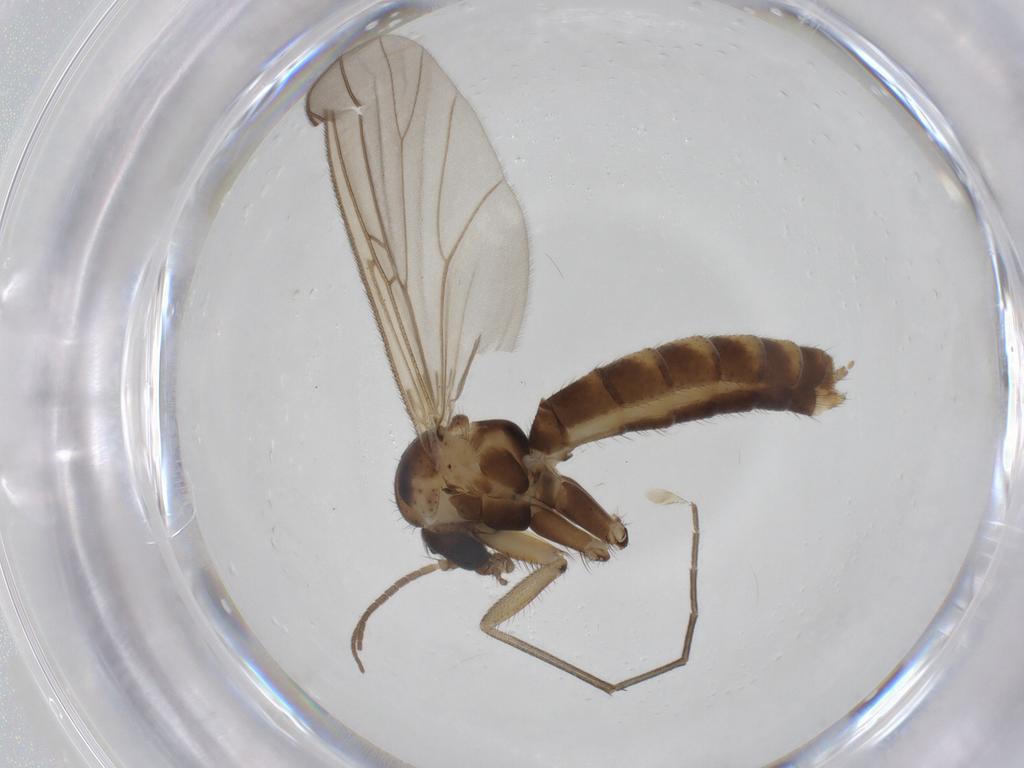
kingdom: Animalia
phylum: Arthropoda
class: Insecta
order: Diptera
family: Mycetophilidae
